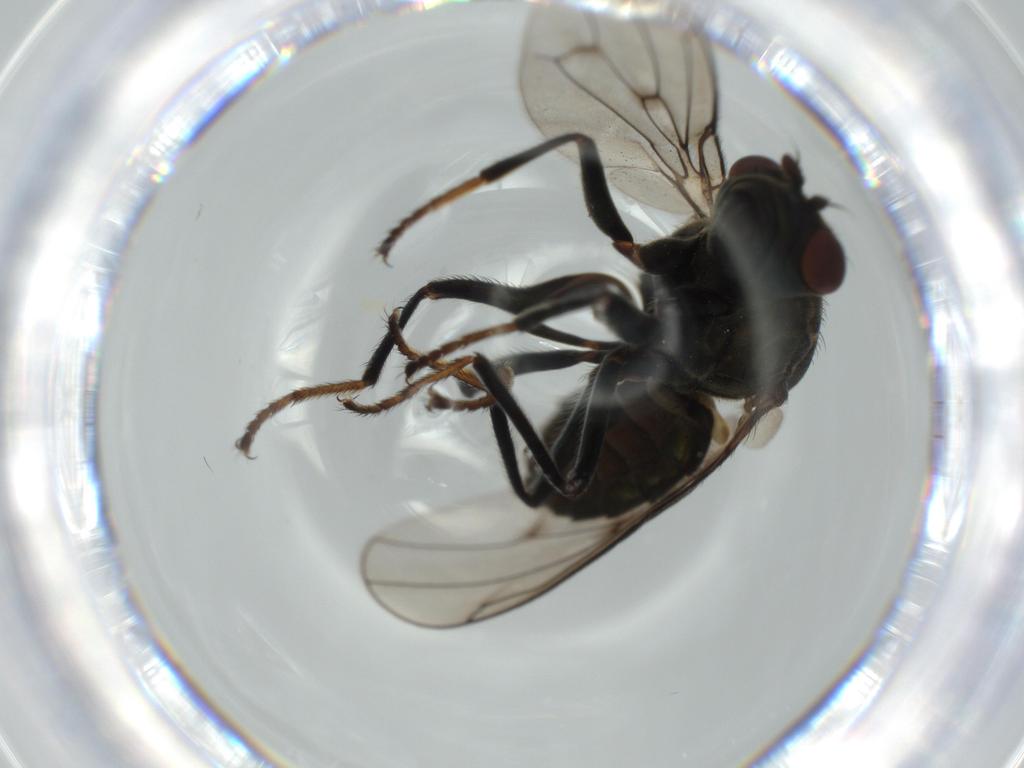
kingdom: Animalia
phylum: Arthropoda
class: Insecta
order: Diptera
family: Ephydridae
